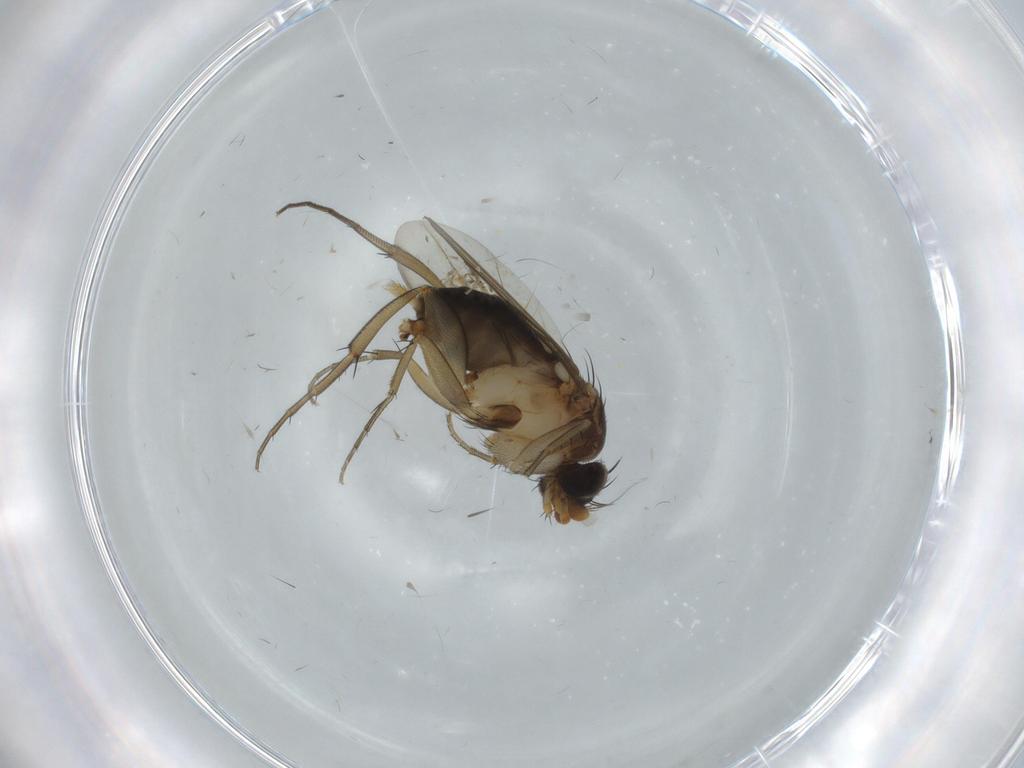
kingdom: Animalia
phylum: Arthropoda
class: Insecta
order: Diptera
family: Phoridae
